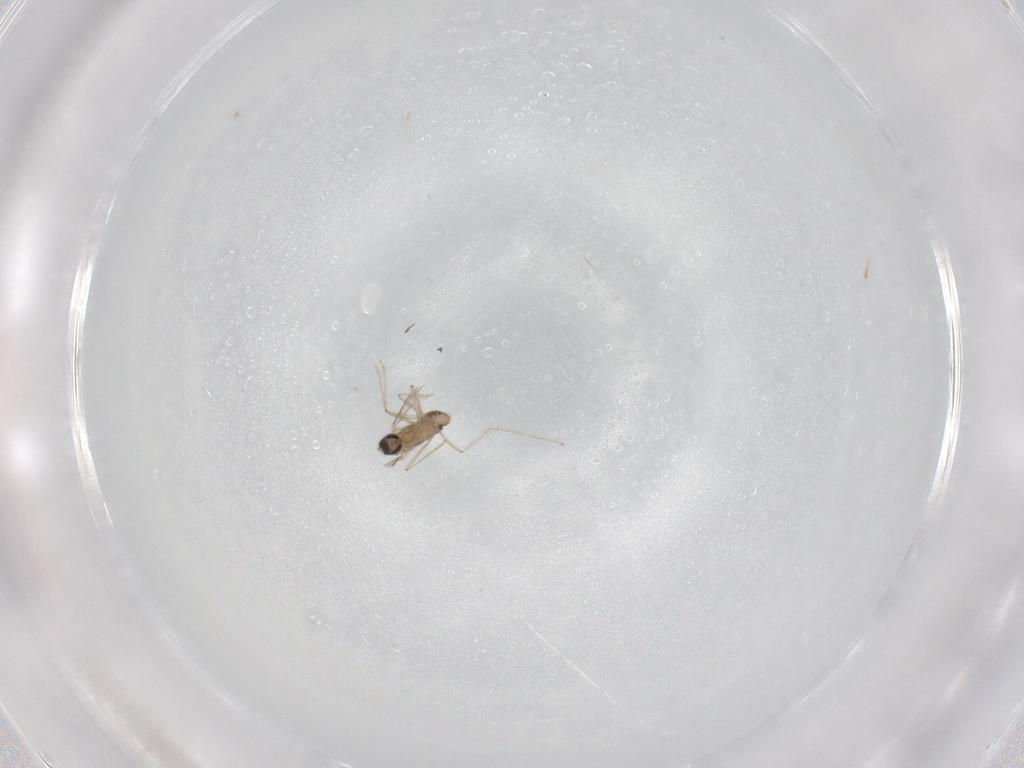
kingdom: Animalia
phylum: Arthropoda
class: Insecta
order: Diptera
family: Cecidomyiidae
